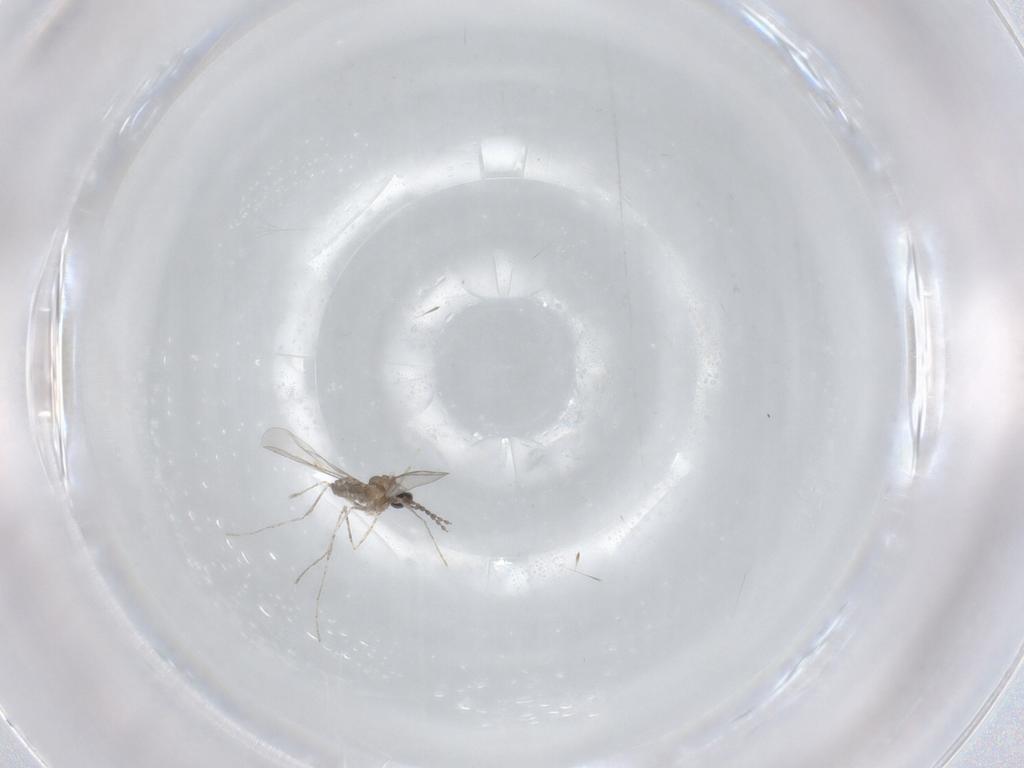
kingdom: Animalia
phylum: Arthropoda
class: Insecta
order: Diptera
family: Cecidomyiidae
